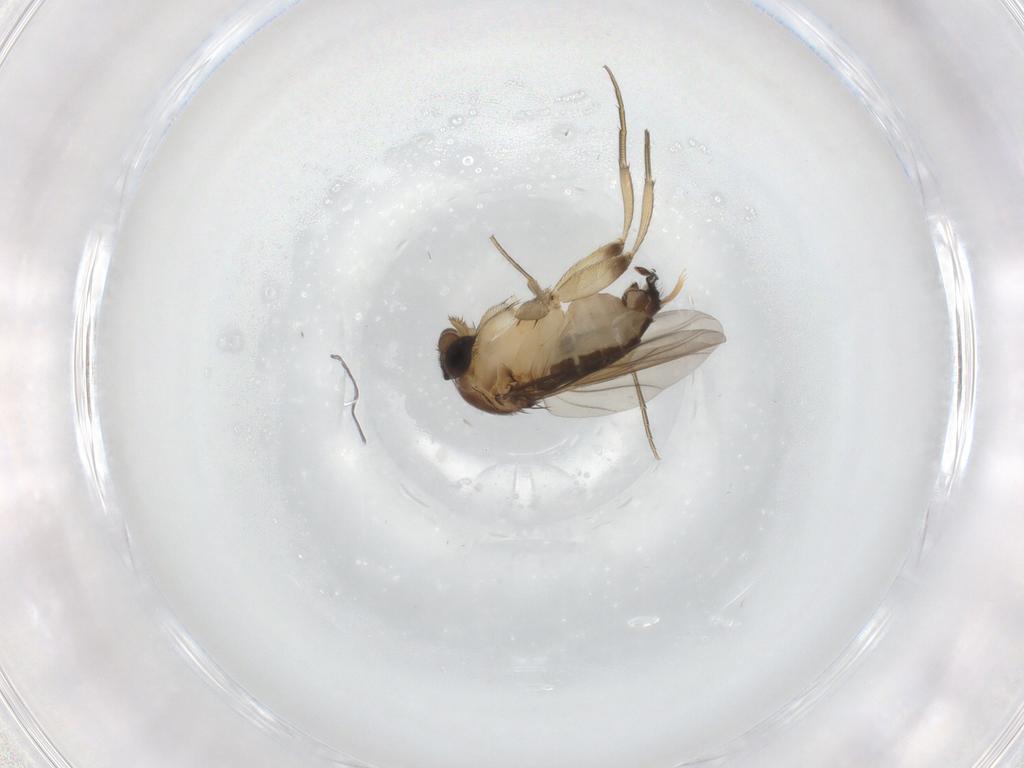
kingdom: Animalia
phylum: Arthropoda
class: Insecta
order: Diptera
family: Phoridae
